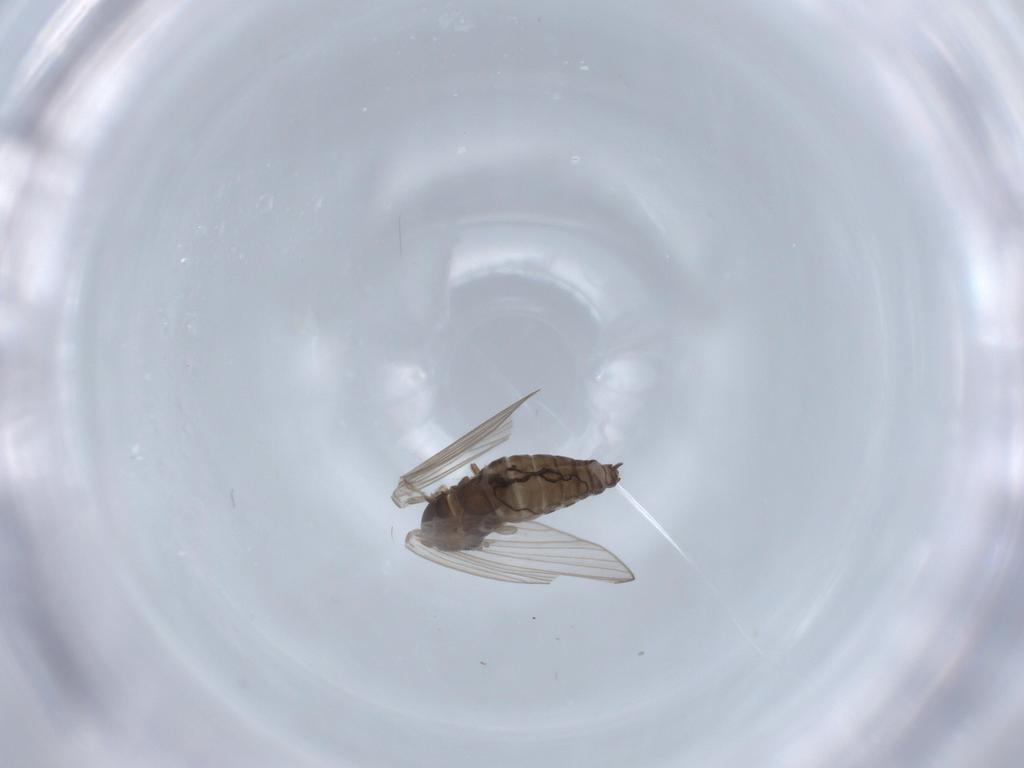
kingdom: Animalia
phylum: Arthropoda
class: Insecta
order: Diptera
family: Psychodidae
